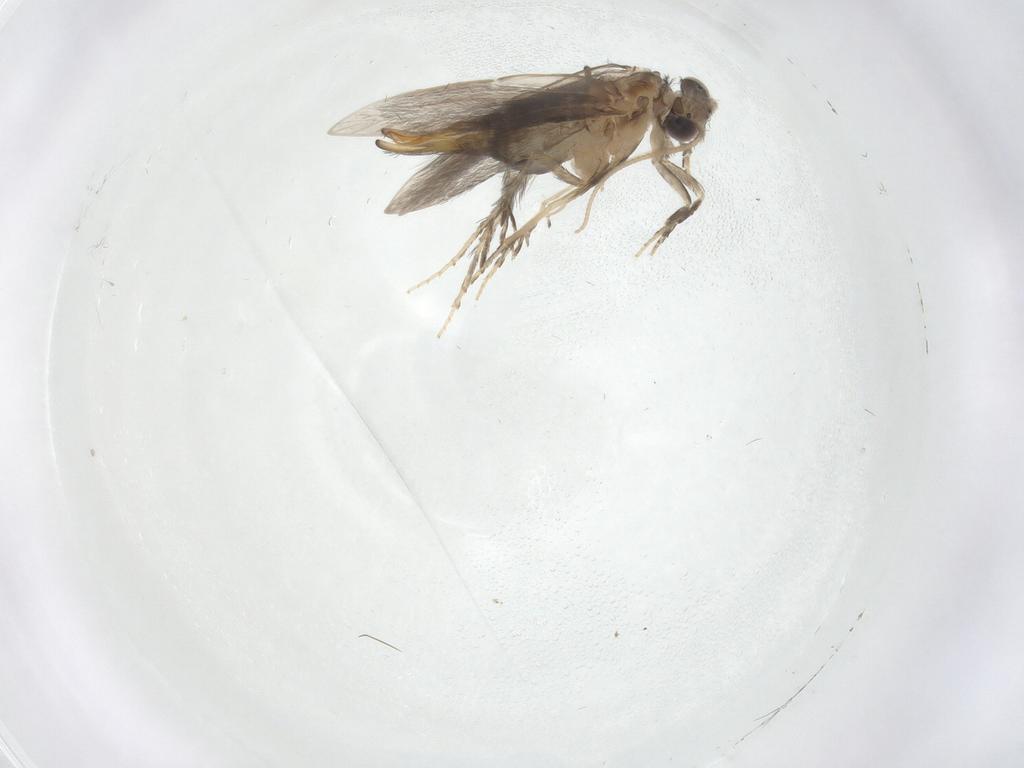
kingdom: Animalia
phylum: Arthropoda
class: Insecta
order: Trichoptera
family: Hydroptilidae
